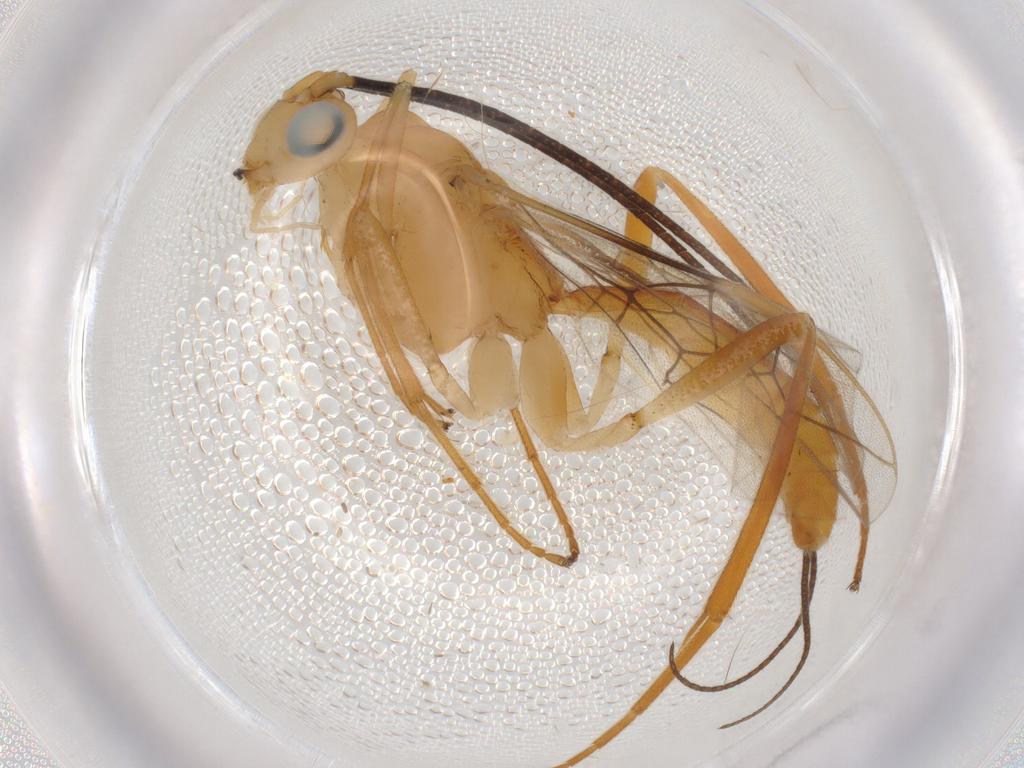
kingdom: Animalia
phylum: Arthropoda
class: Insecta
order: Hymenoptera
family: Braconidae
